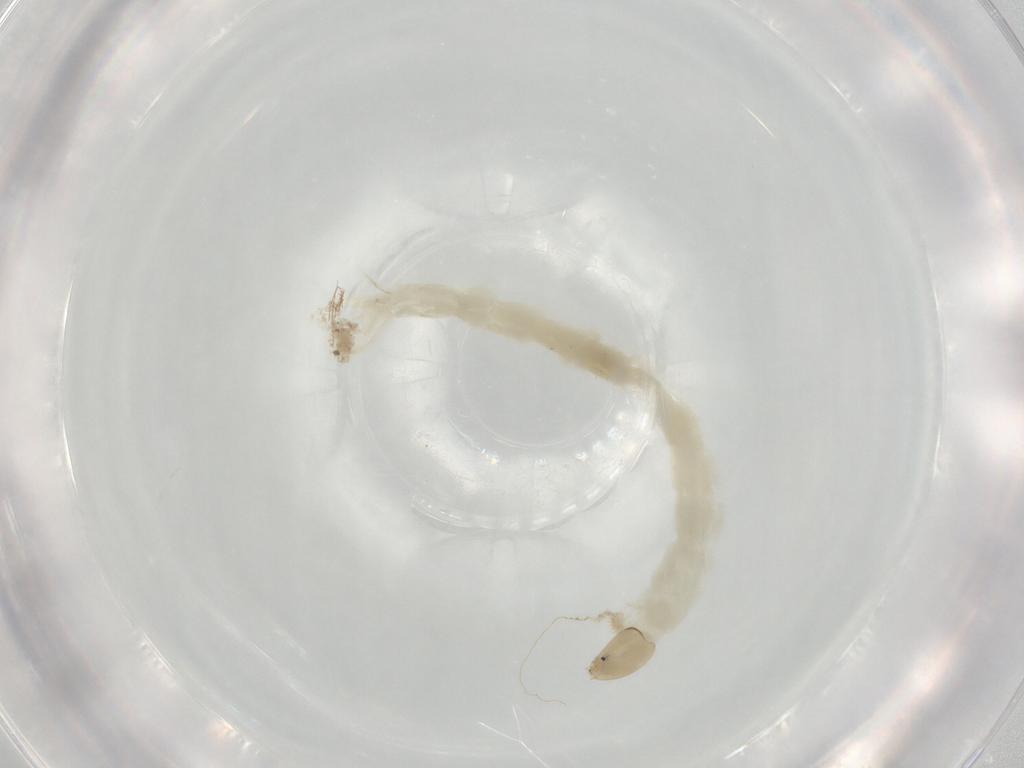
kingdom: Animalia
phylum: Arthropoda
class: Insecta
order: Diptera
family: Chironomidae
